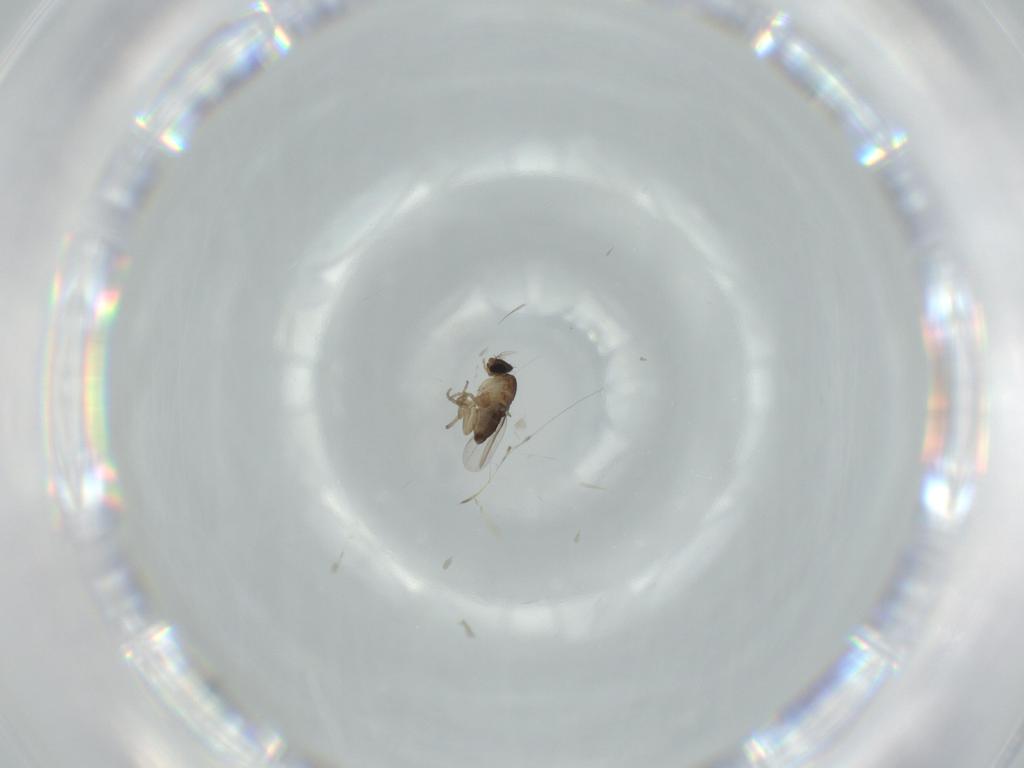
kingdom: Animalia
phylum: Arthropoda
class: Insecta
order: Diptera
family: Phoridae
